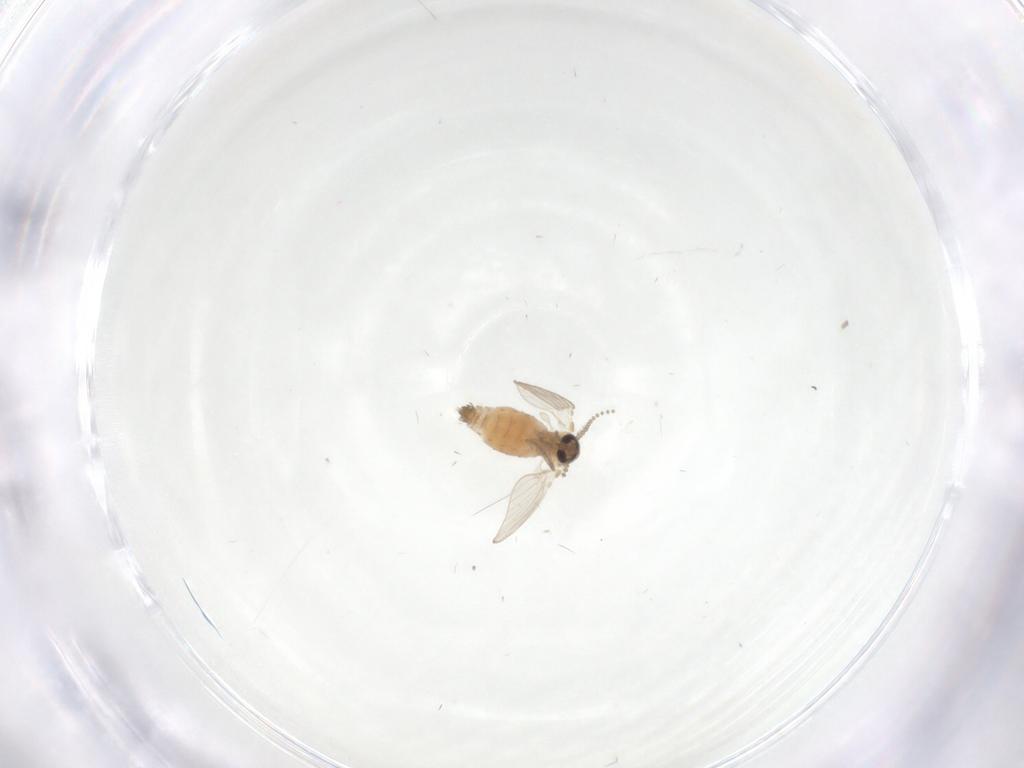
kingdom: Animalia
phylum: Arthropoda
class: Insecta
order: Diptera
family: Psychodidae
